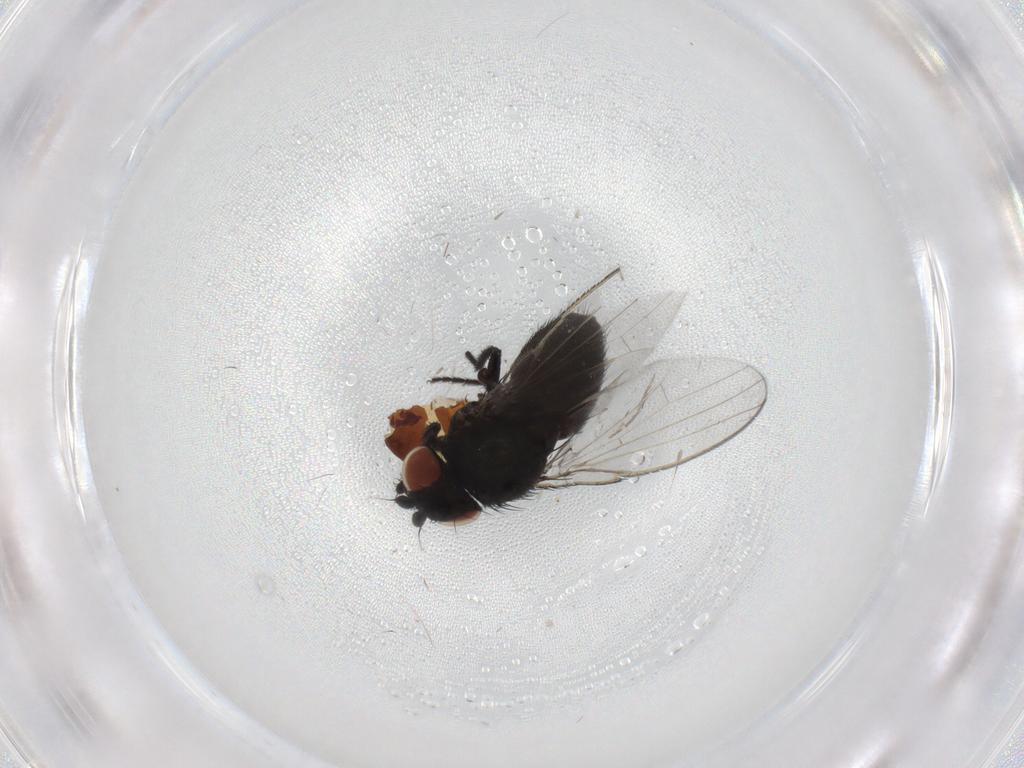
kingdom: Animalia
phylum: Arthropoda
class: Insecta
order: Diptera
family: Milichiidae
